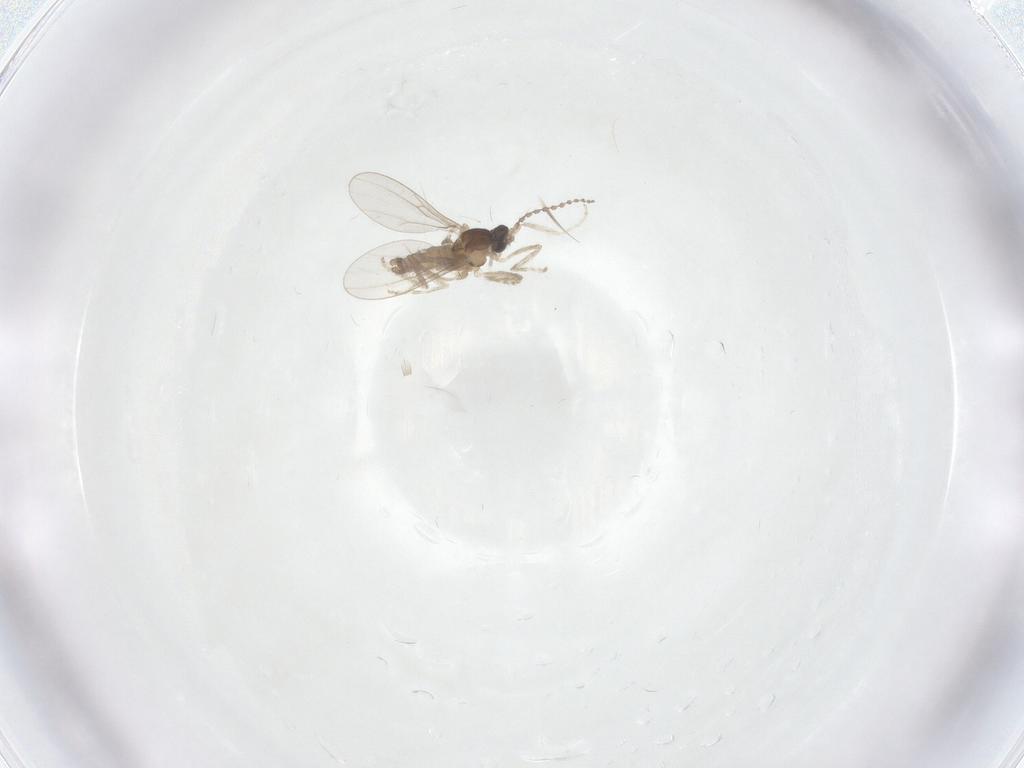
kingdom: Animalia
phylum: Arthropoda
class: Insecta
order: Diptera
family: Cecidomyiidae
